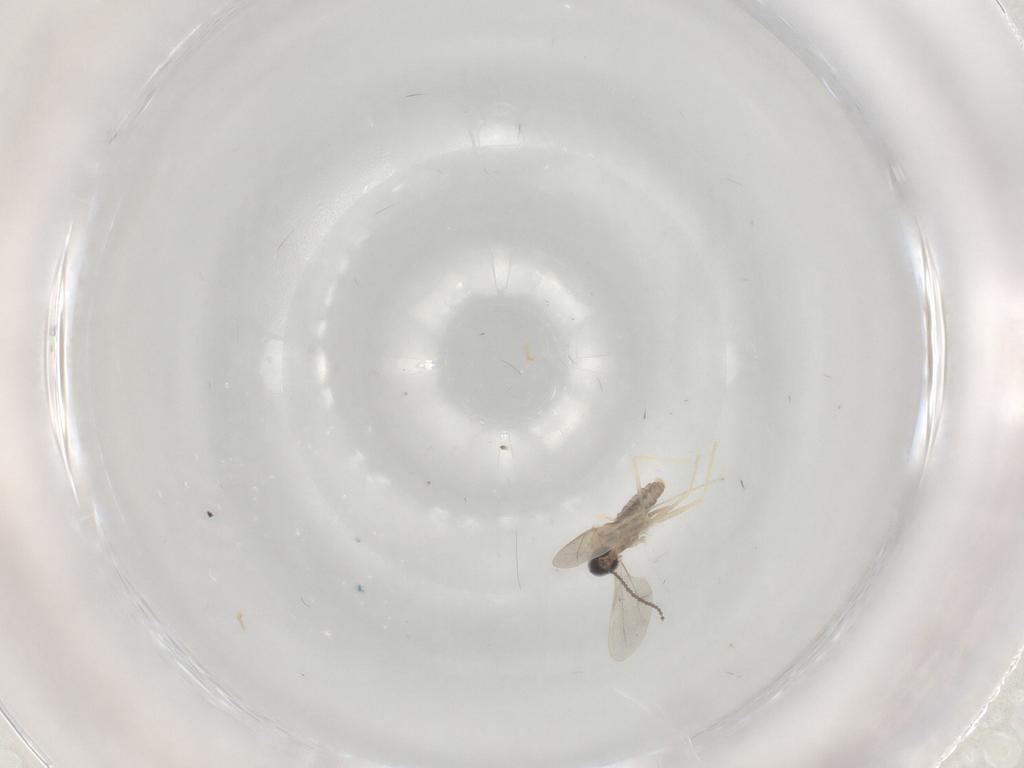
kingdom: Animalia
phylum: Arthropoda
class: Insecta
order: Diptera
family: Cecidomyiidae
